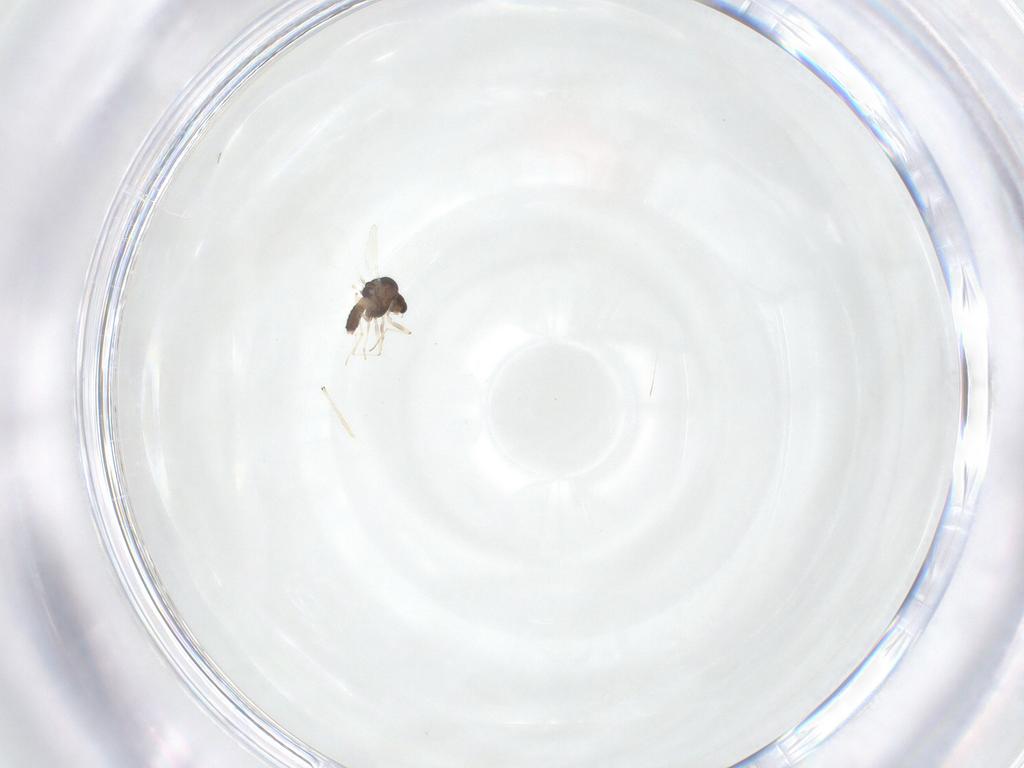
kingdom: Animalia
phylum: Arthropoda
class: Insecta
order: Diptera
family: Chironomidae
